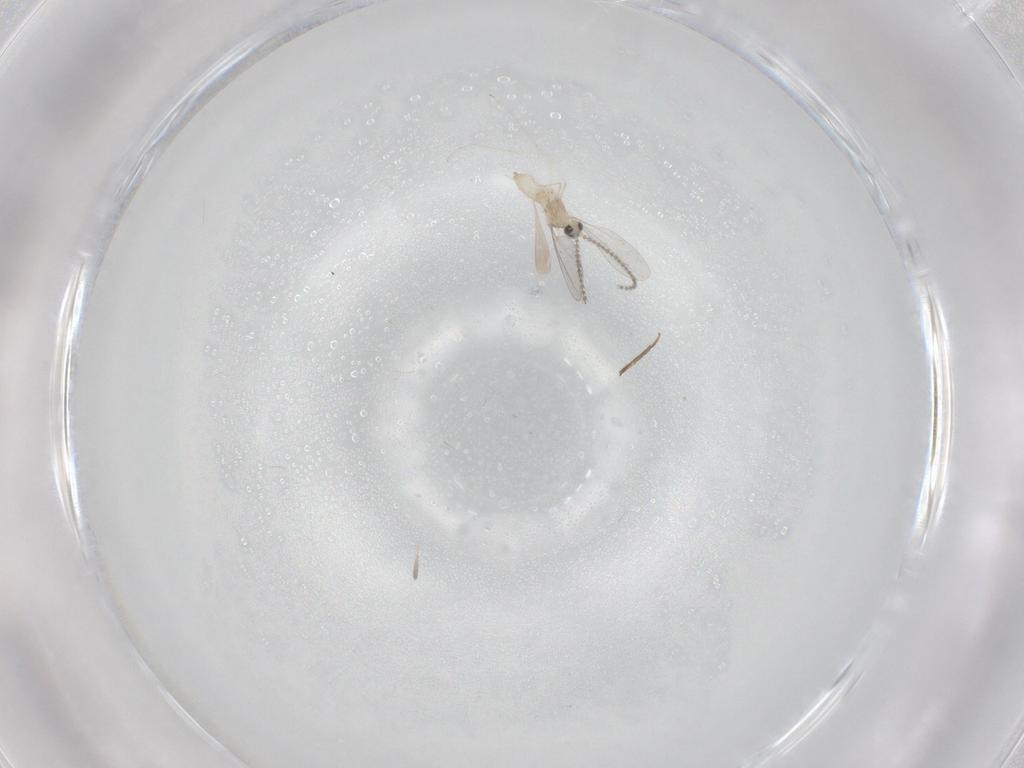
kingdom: Animalia
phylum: Arthropoda
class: Insecta
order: Diptera
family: Cecidomyiidae
